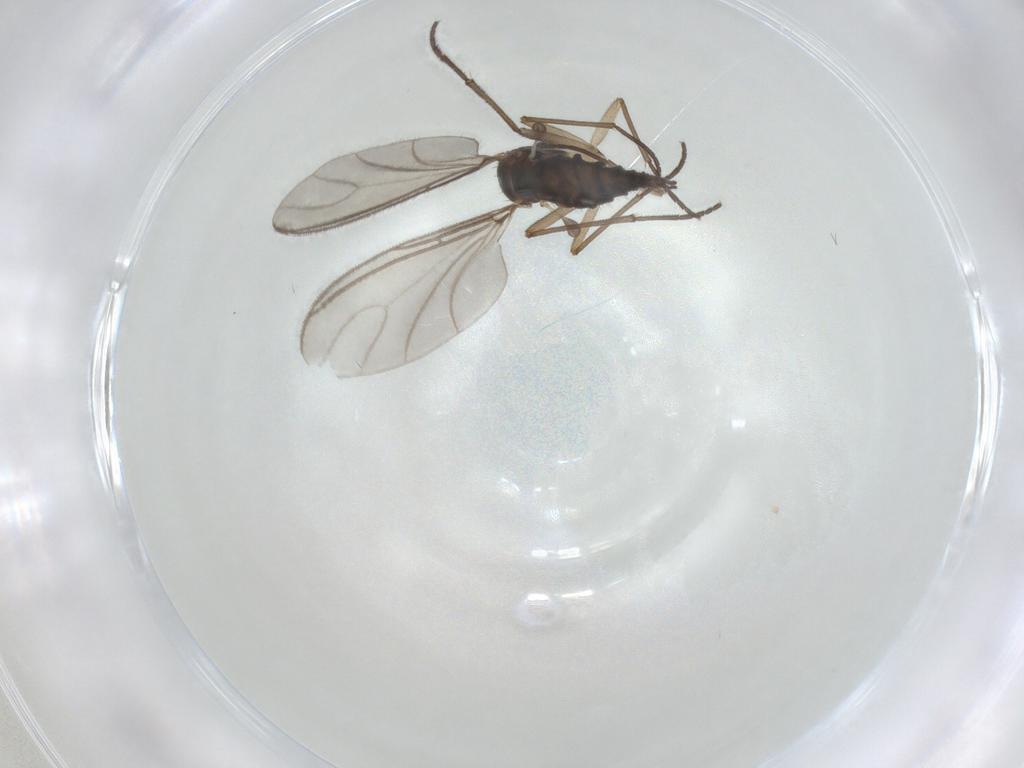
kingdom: Animalia
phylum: Arthropoda
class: Insecta
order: Diptera
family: Sciaridae
